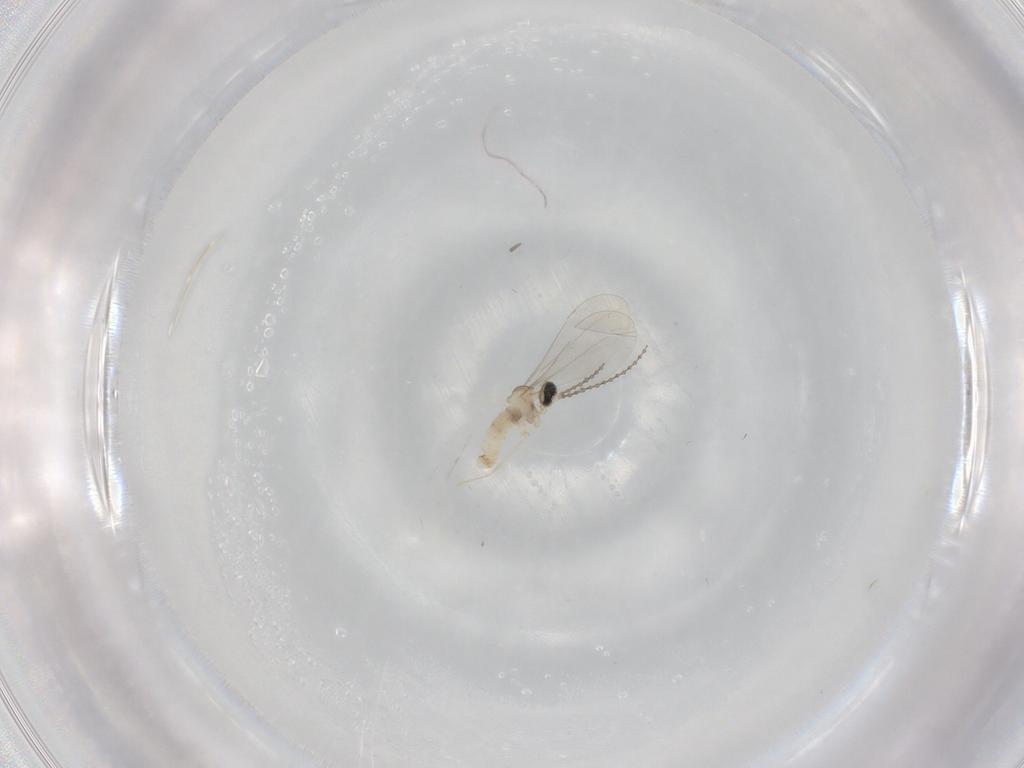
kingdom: Animalia
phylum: Arthropoda
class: Insecta
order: Diptera
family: Cecidomyiidae
